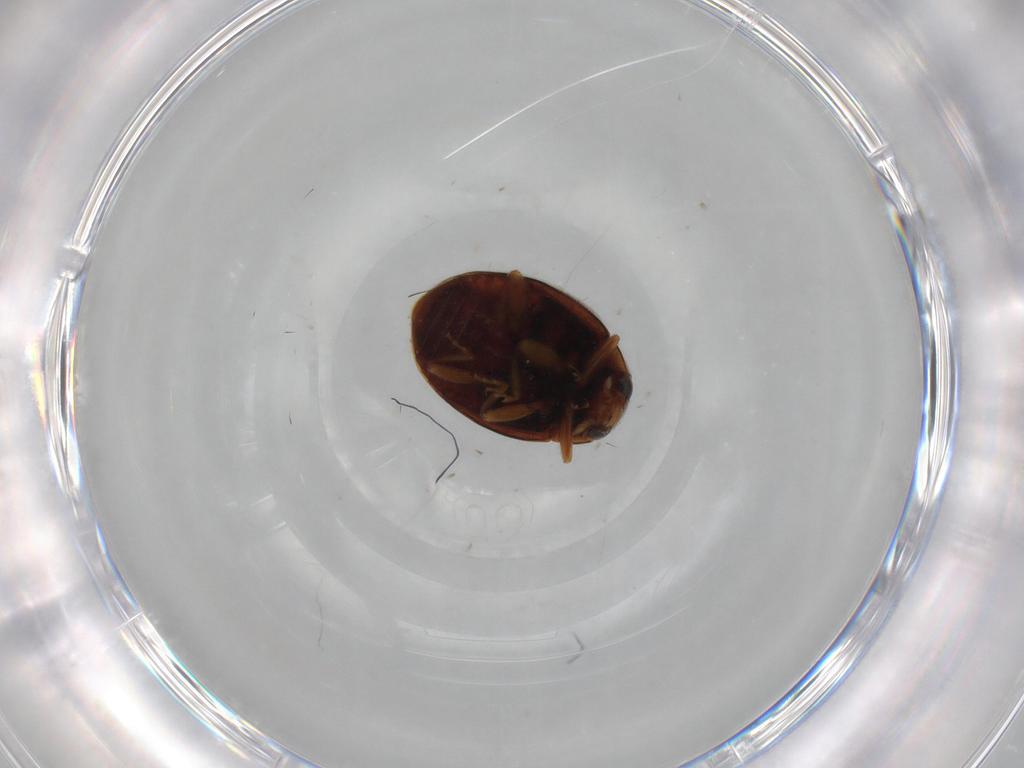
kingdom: Animalia
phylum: Arthropoda
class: Insecta
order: Coleoptera
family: Coccinellidae
